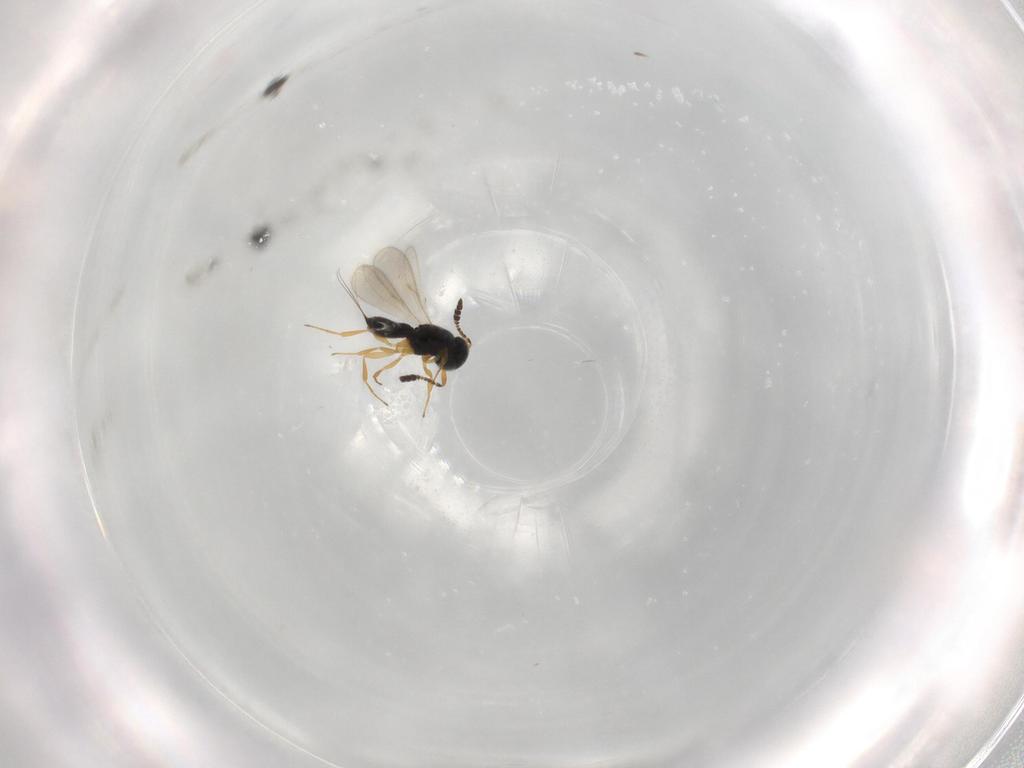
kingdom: Animalia
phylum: Arthropoda
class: Insecta
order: Hymenoptera
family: Scelionidae
